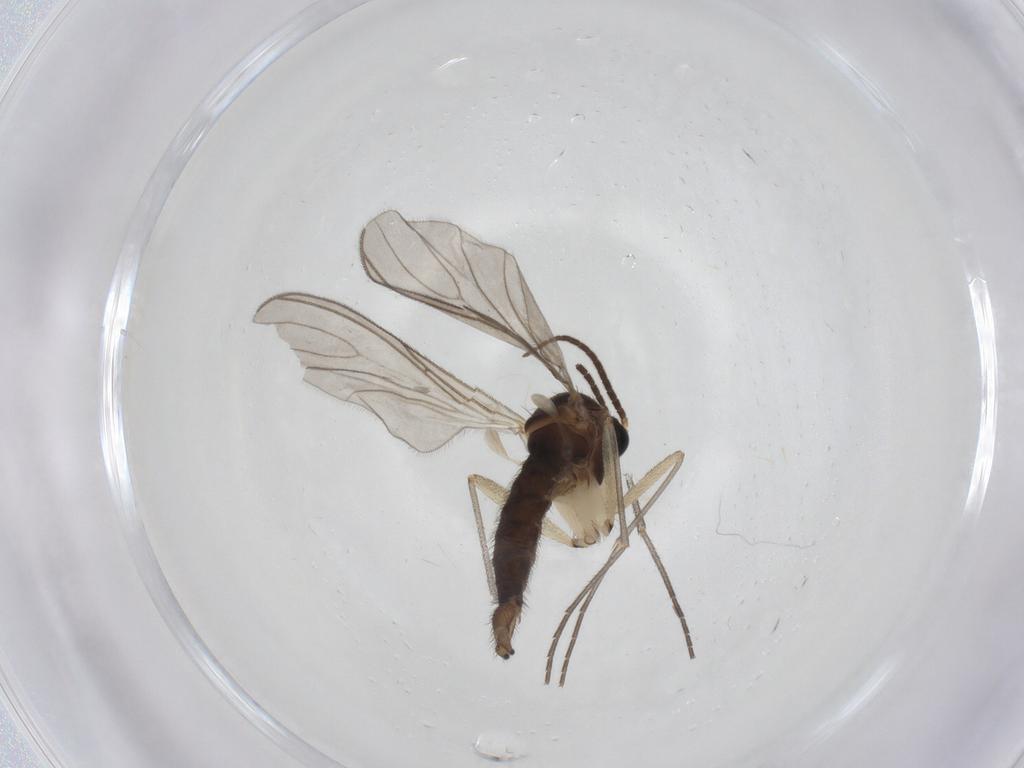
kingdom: Animalia
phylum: Arthropoda
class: Insecta
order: Diptera
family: Sciaridae
